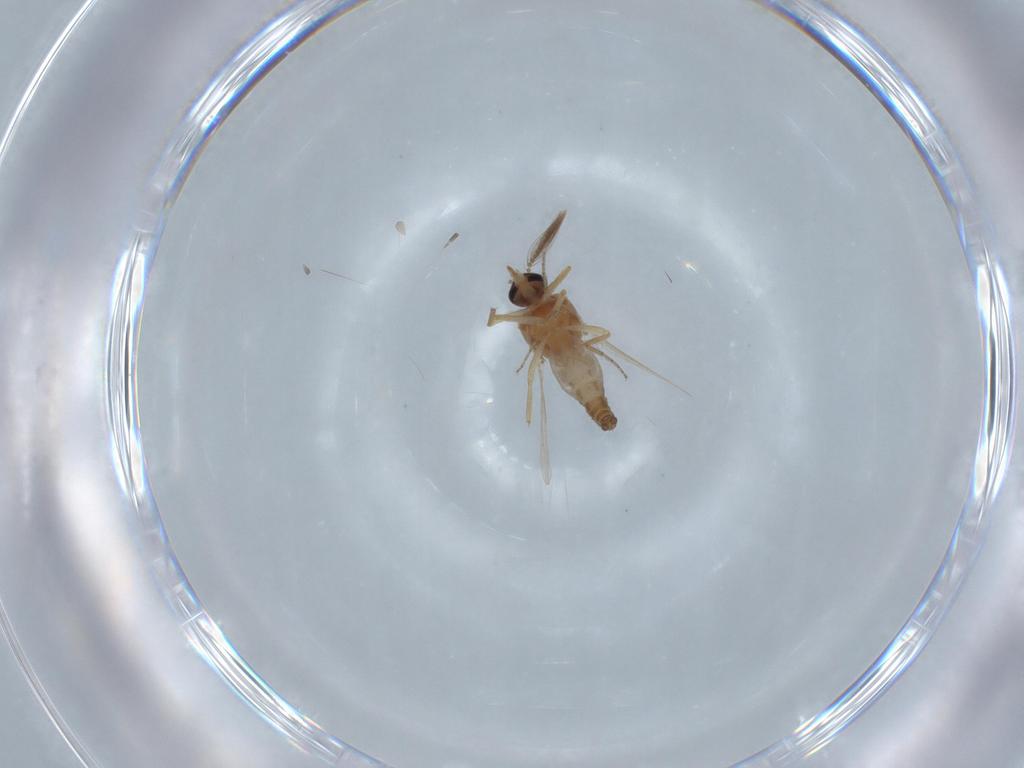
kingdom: Animalia
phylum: Arthropoda
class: Insecta
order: Diptera
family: Ceratopogonidae
